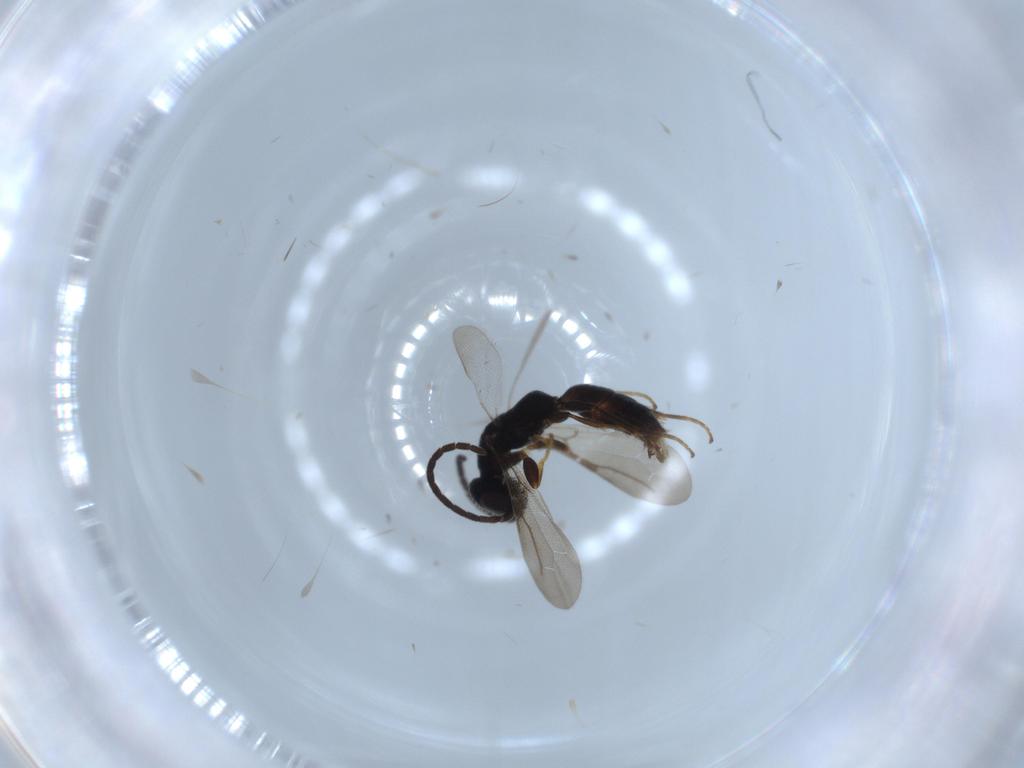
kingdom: Animalia
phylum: Arthropoda
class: Insecta
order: Hymenoptera
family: Bethylidae
